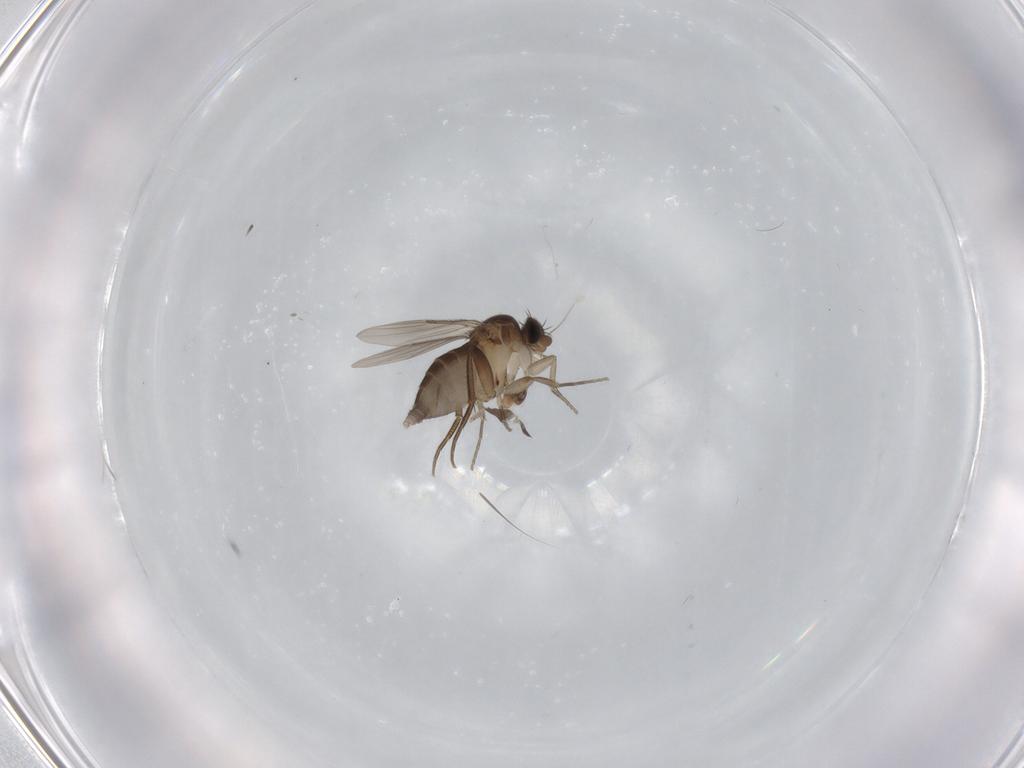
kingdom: Animalia
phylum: Arthropoda
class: Insecta
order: Diptera
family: Phoridae
